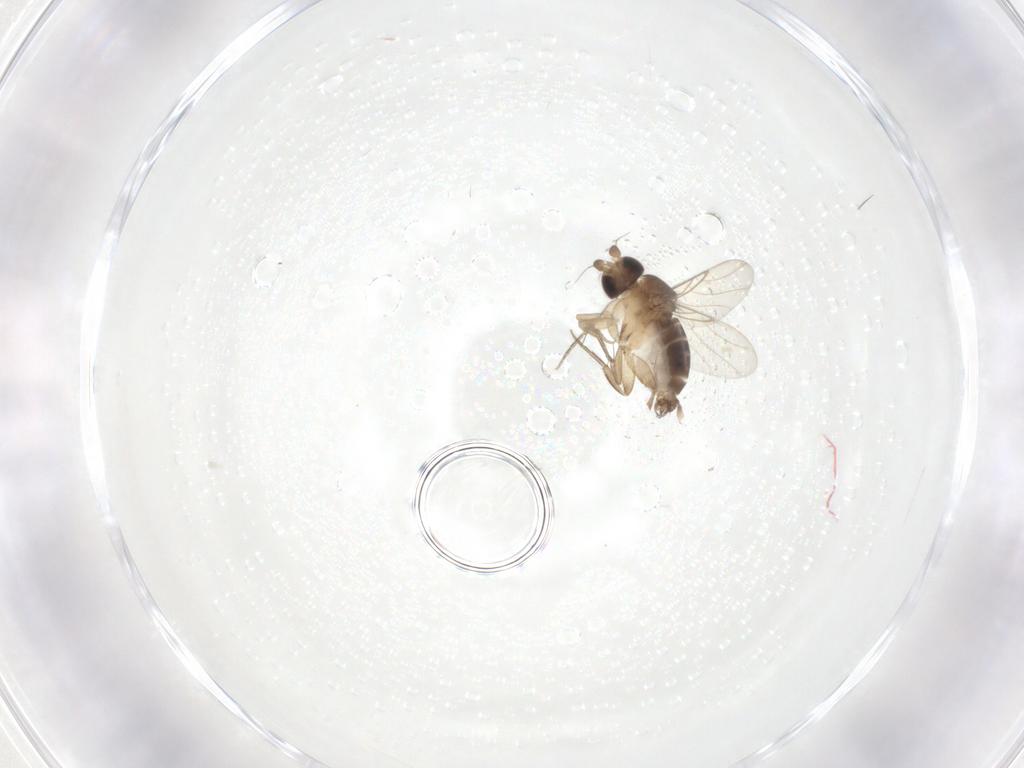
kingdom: Animalia
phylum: Arthropoda
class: Insecta
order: Diptera
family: Phoridae
